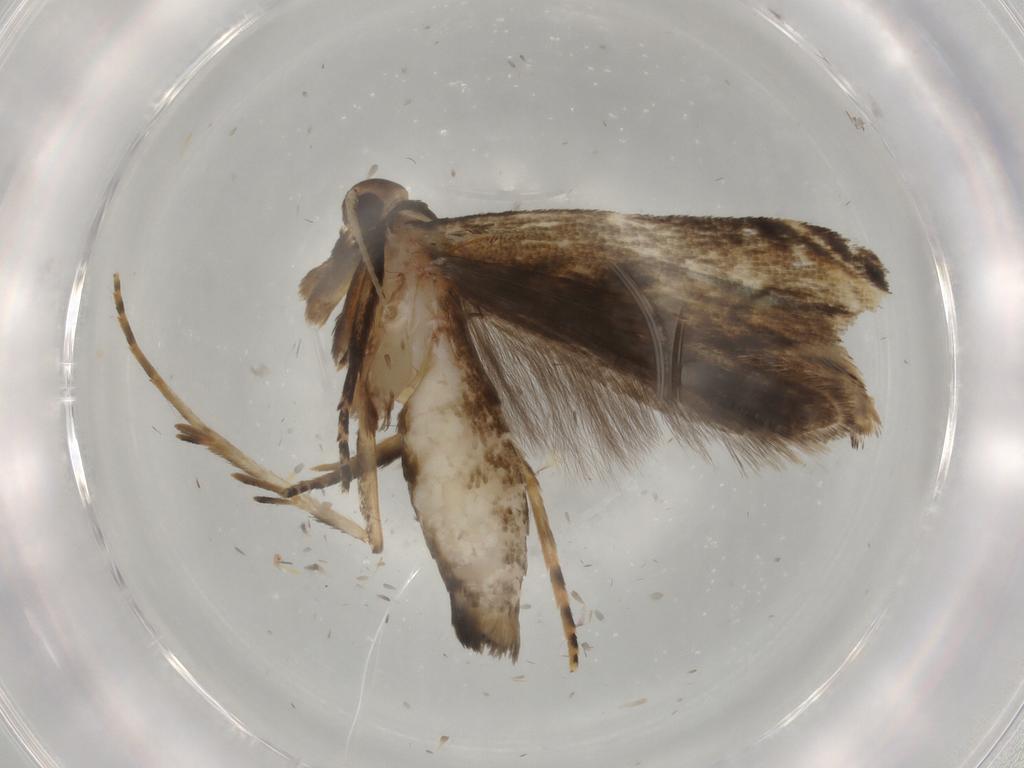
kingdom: Animalia
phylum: Arthropoda
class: Insecta
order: Lepidoptera
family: Gelechiidae
